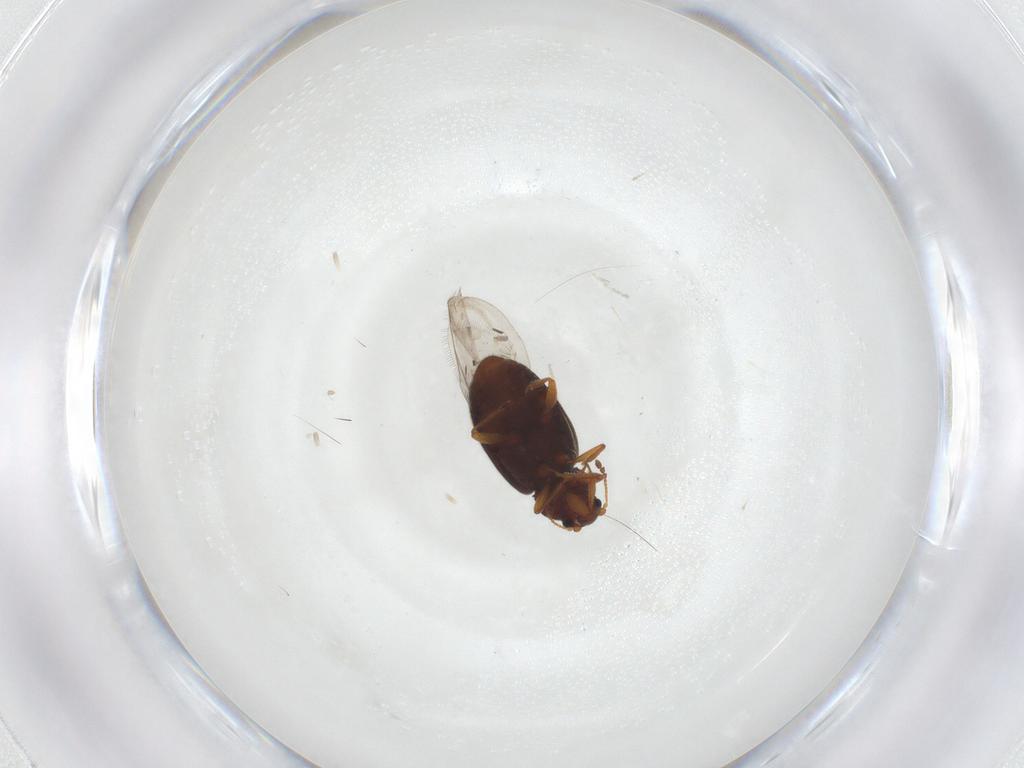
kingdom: Animalia
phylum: Arthropoda
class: Insecta
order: Coleoptera
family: Latridiidae
